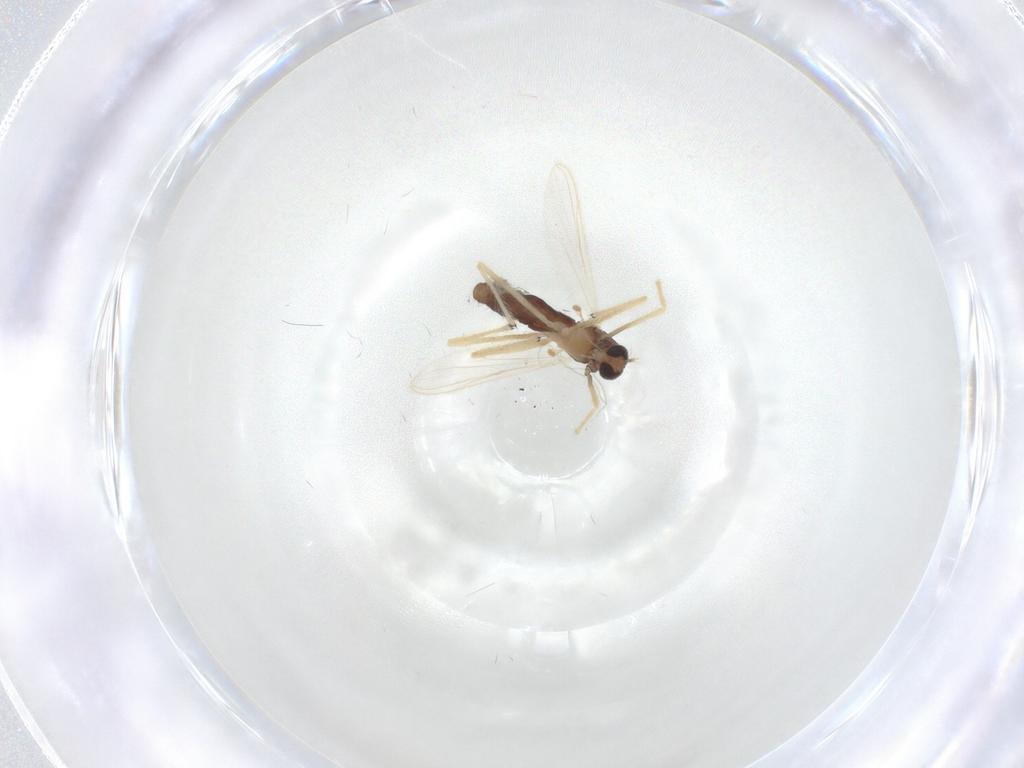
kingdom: Animalia
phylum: Arthropoda
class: Insecta
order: Diptera
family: Chironomidae
